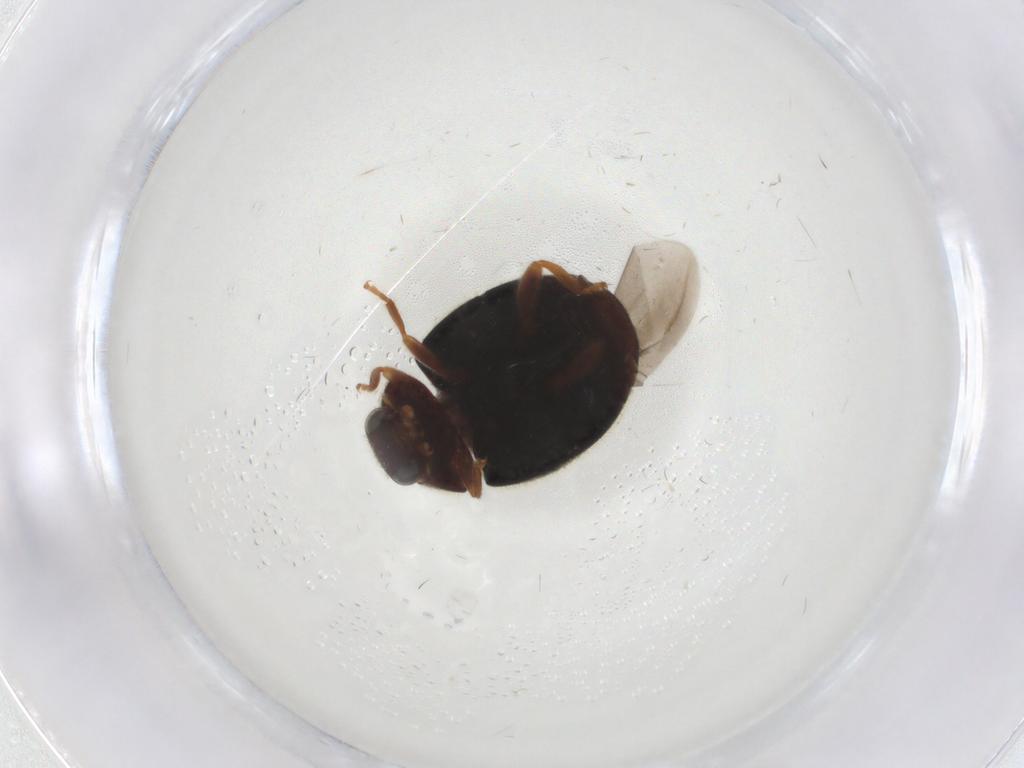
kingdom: Animalia
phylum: Arthropoda
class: Insecta
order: Coleoptera
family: Coccinellidae
